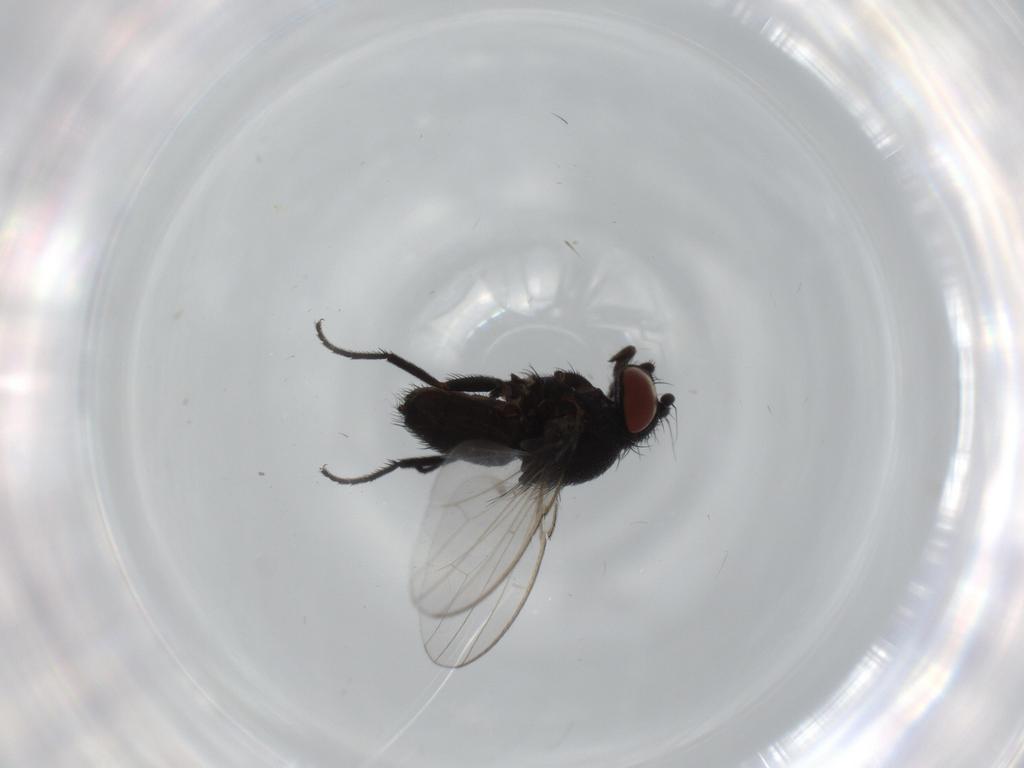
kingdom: Animalia
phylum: Arthropoda
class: Insecta
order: Diptera
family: Milichiidae
